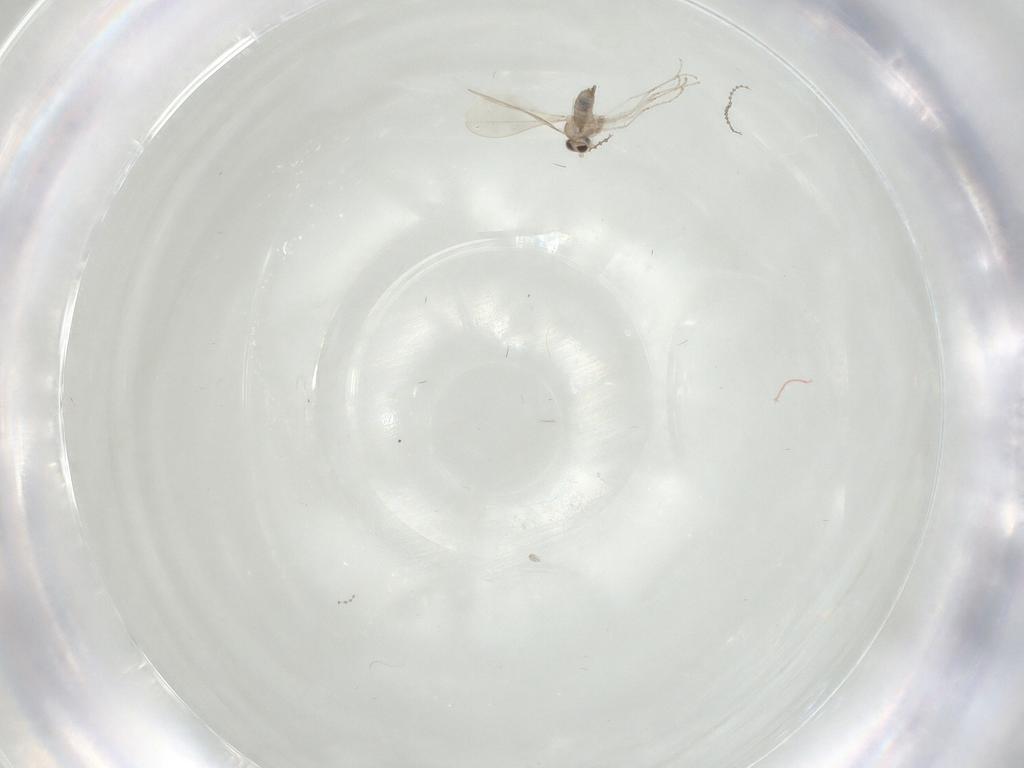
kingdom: Animalia
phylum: Arthropoda
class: Insecta
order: Diptera
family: Cecidomyiidae
